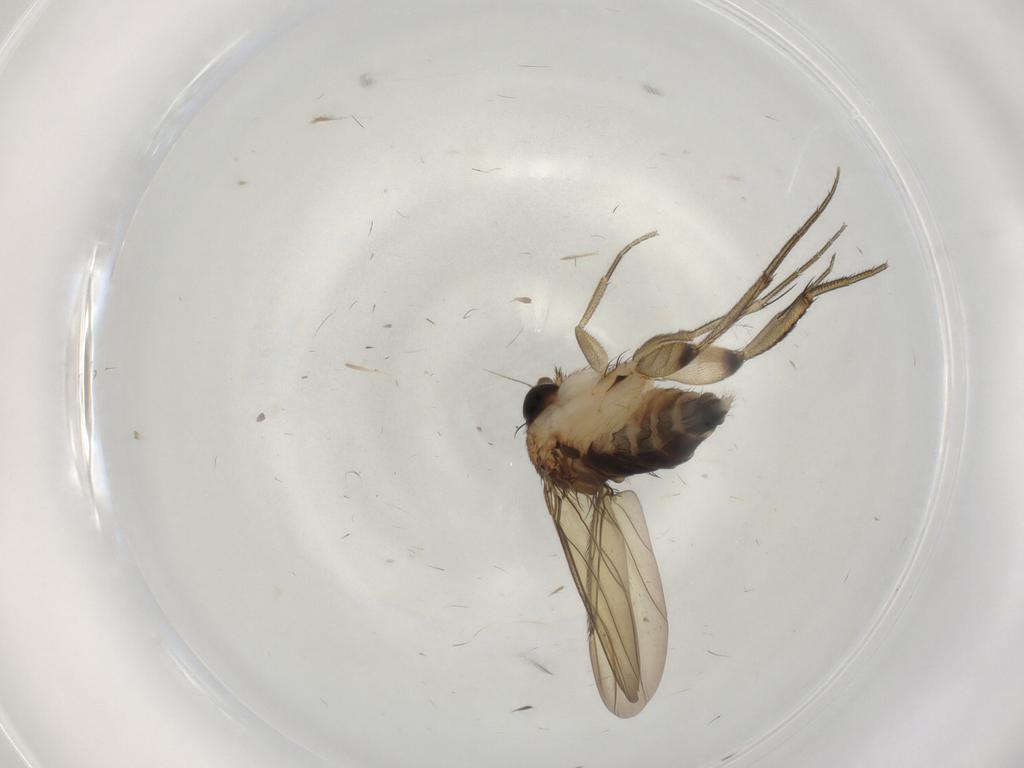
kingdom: Animalia
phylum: Arthropoda
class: Insecta
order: Diptera
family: Phoridae
